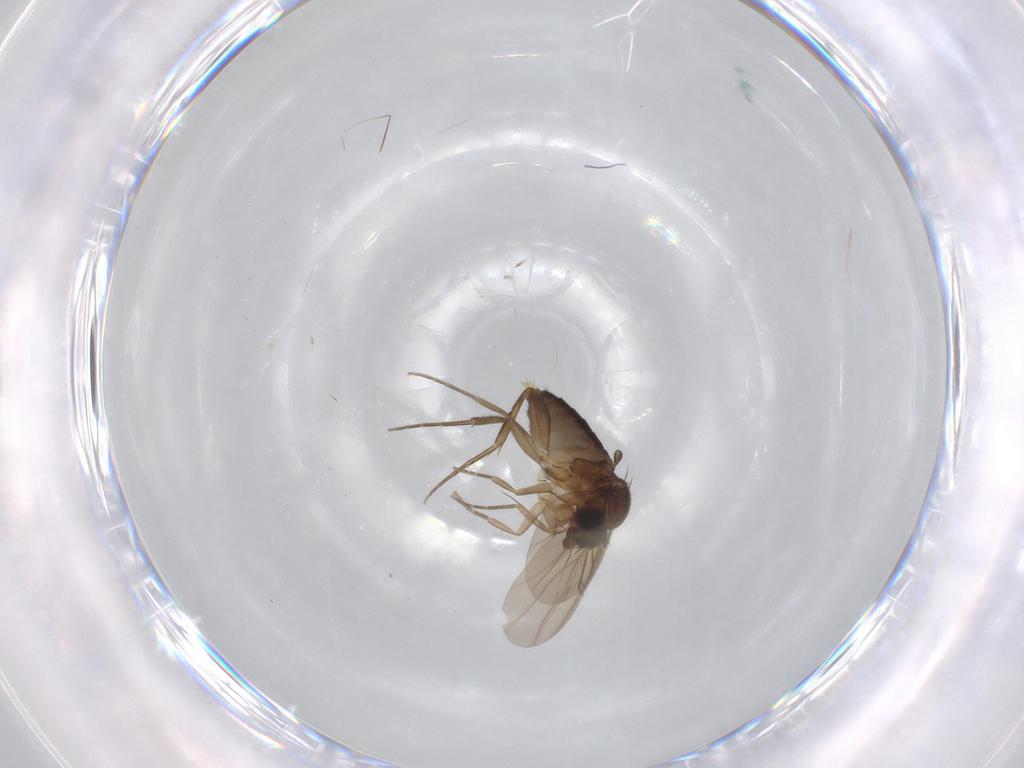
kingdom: Animalia
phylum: Arthropoda
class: Insecta
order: Diptera
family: Phoridae
